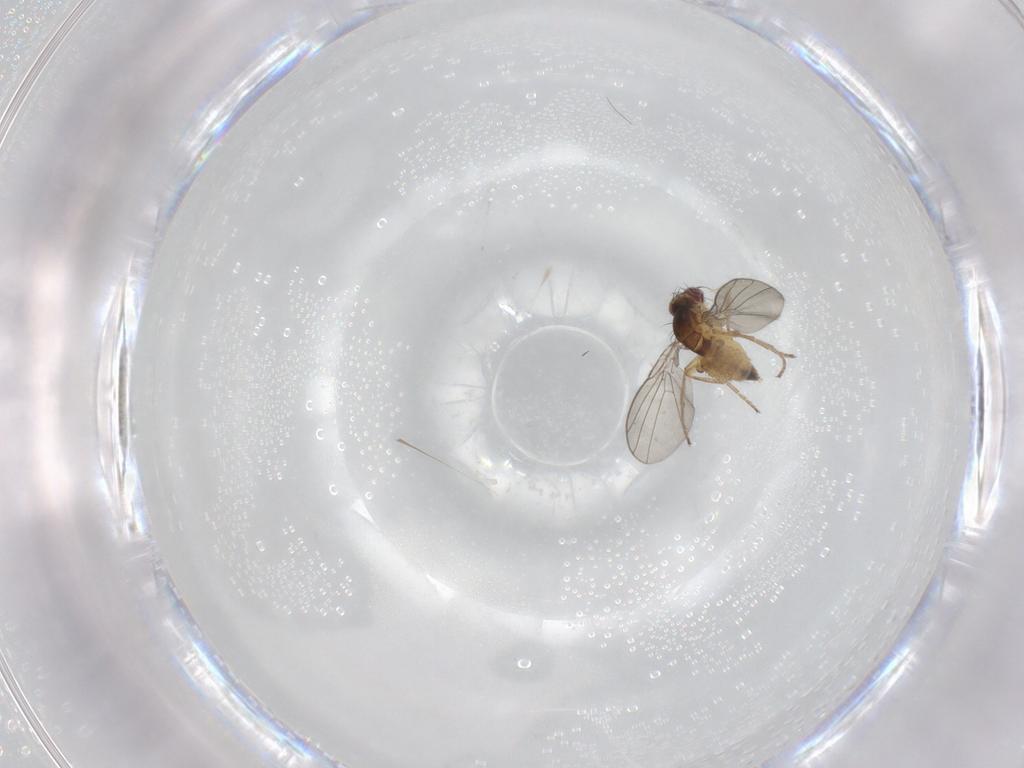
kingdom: Animalia
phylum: Arthropoda
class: Insecta
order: Diptera
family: Agromyzidae
